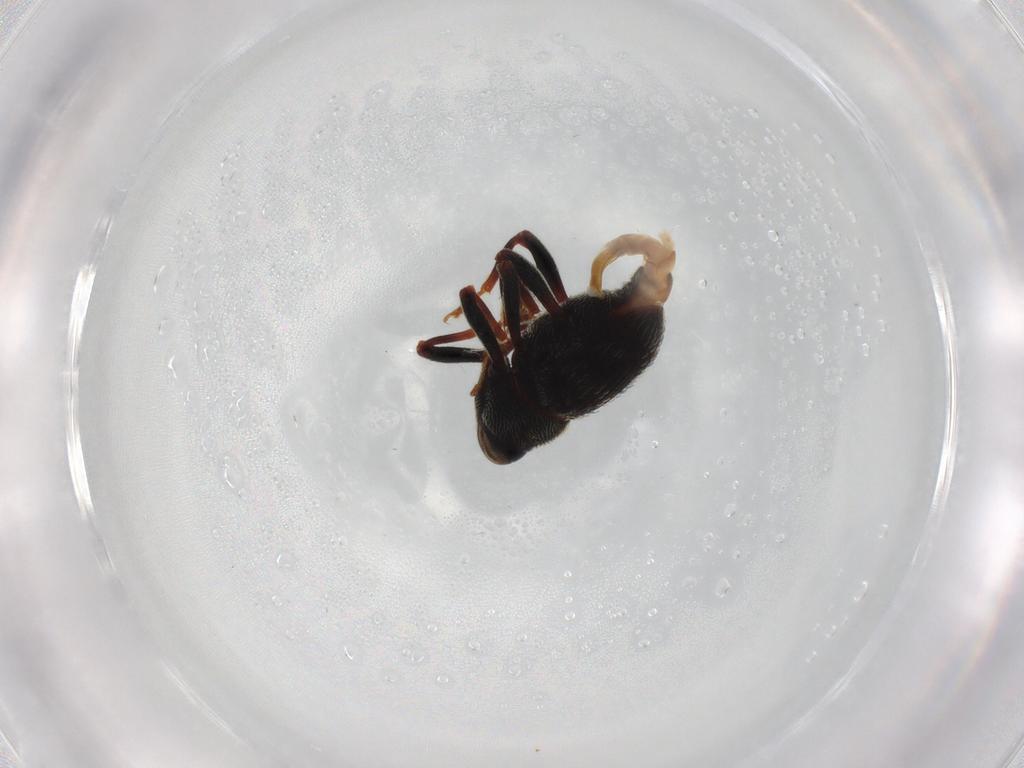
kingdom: Animalia
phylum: Arthropoda
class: Insecta
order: Coleoptera
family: Curculionidae
